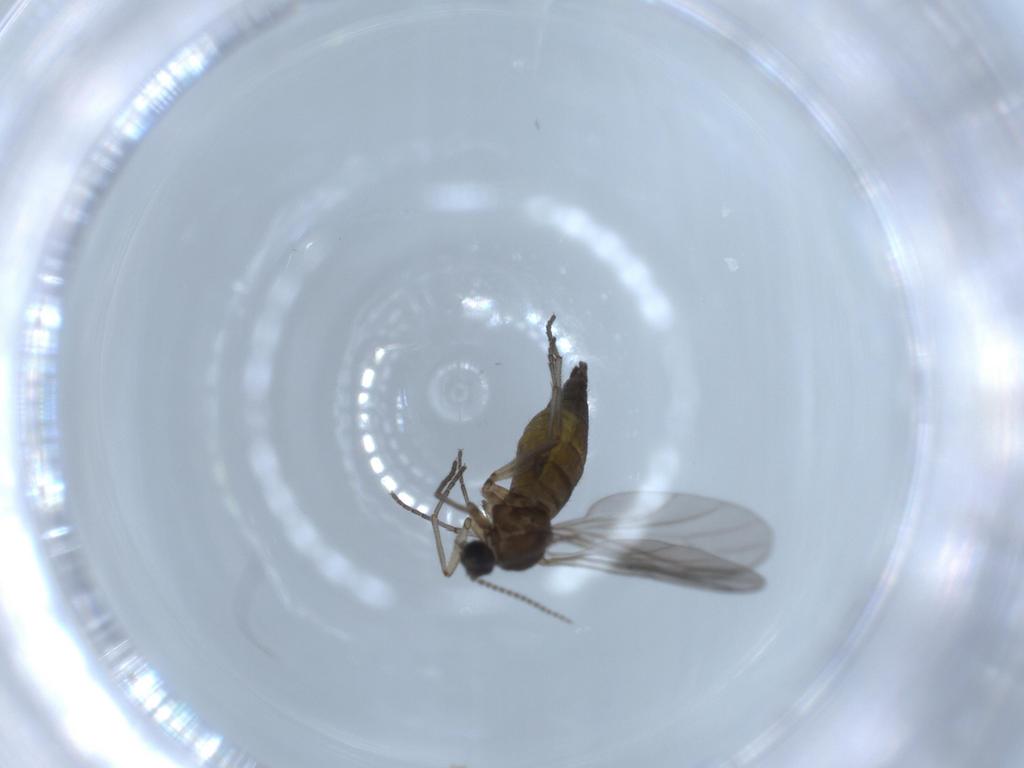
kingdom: Animalia
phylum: Arthropoda
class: Insecta
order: Diptera
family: Sciaridae
